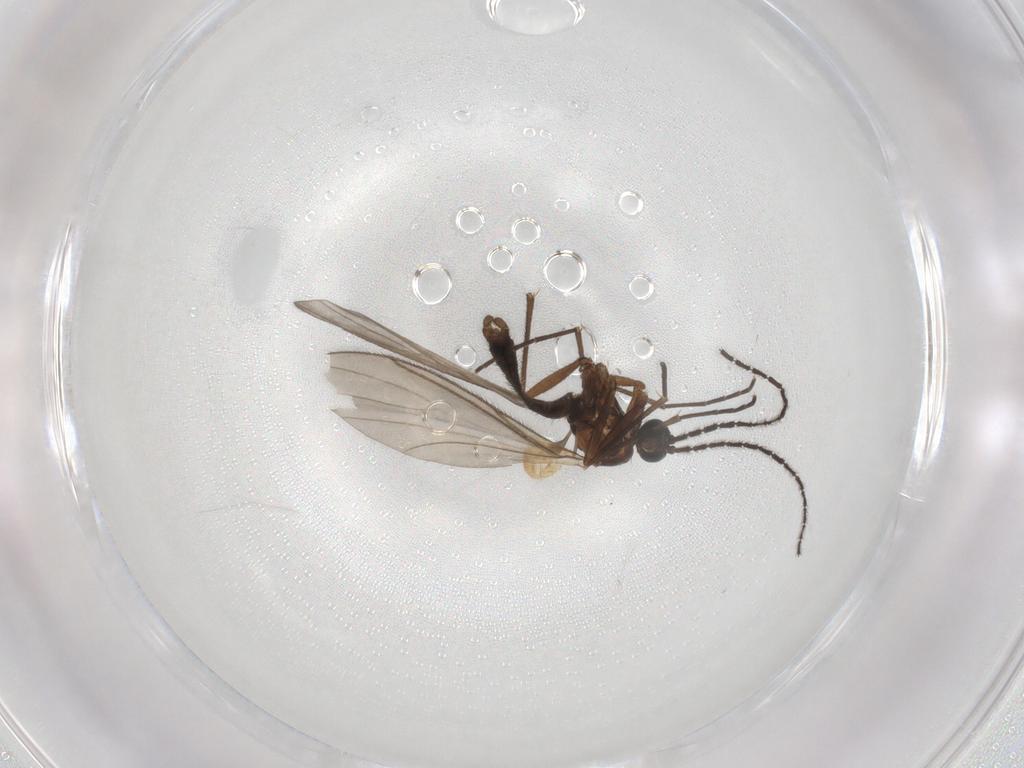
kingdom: Animalia
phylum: Arthropoda
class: Insecta
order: Diptera
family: Sciaridae
